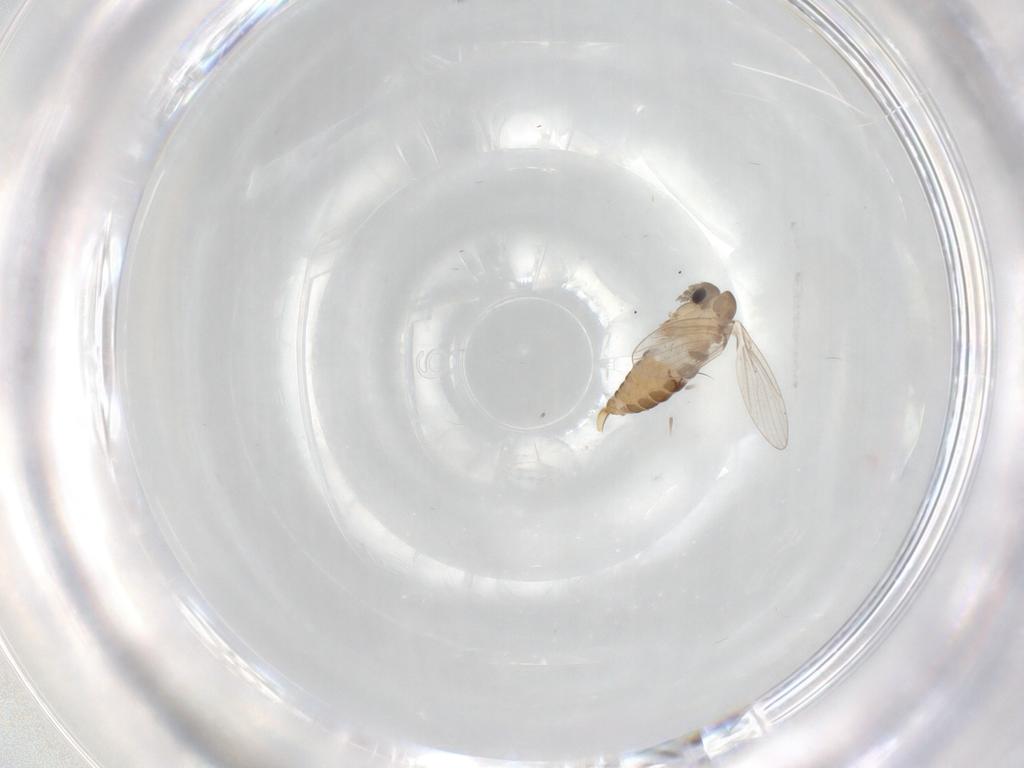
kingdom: Animalia
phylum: Arthropoda
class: Insecta
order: Diptera
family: Psychodidae
